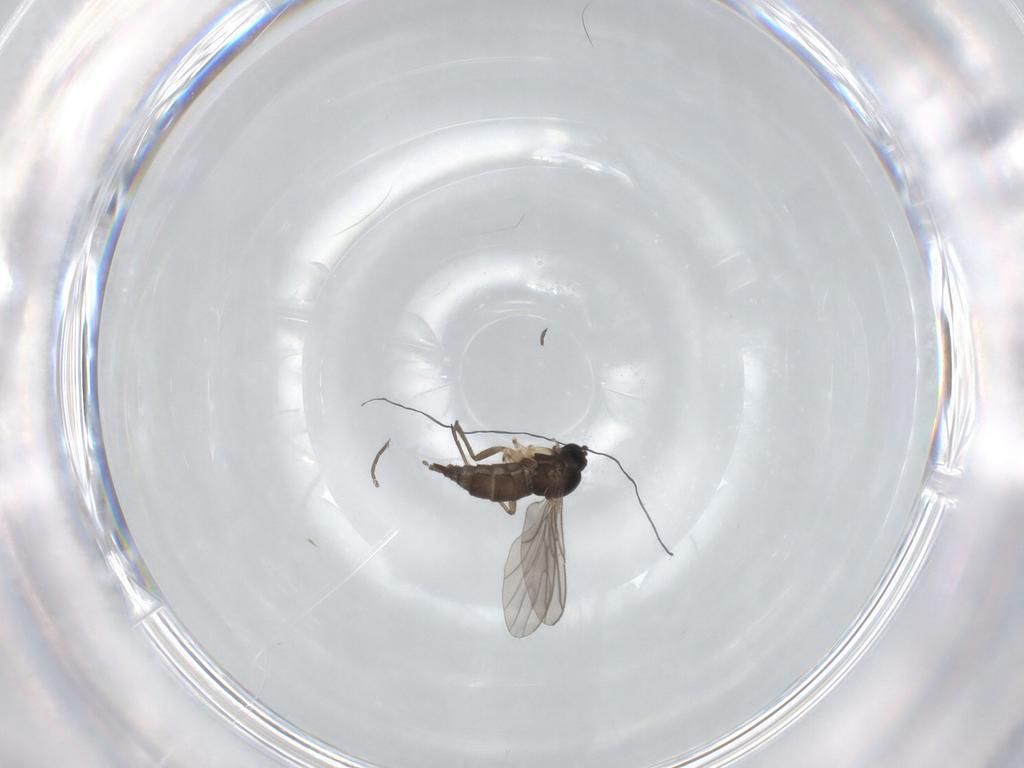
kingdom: Animalia
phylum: Arthropoda
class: Insecta
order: Diptera
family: Sciaridae
